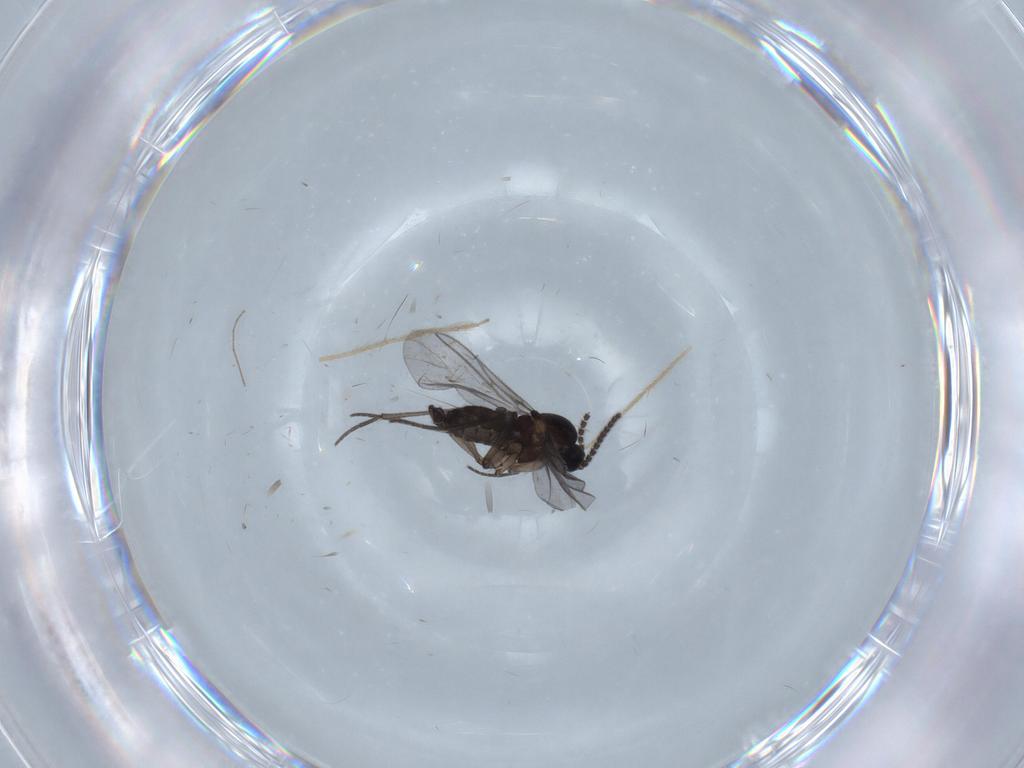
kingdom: Animalia
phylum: Arthropoda
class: Insecta
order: Diptera
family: Chironomidae
